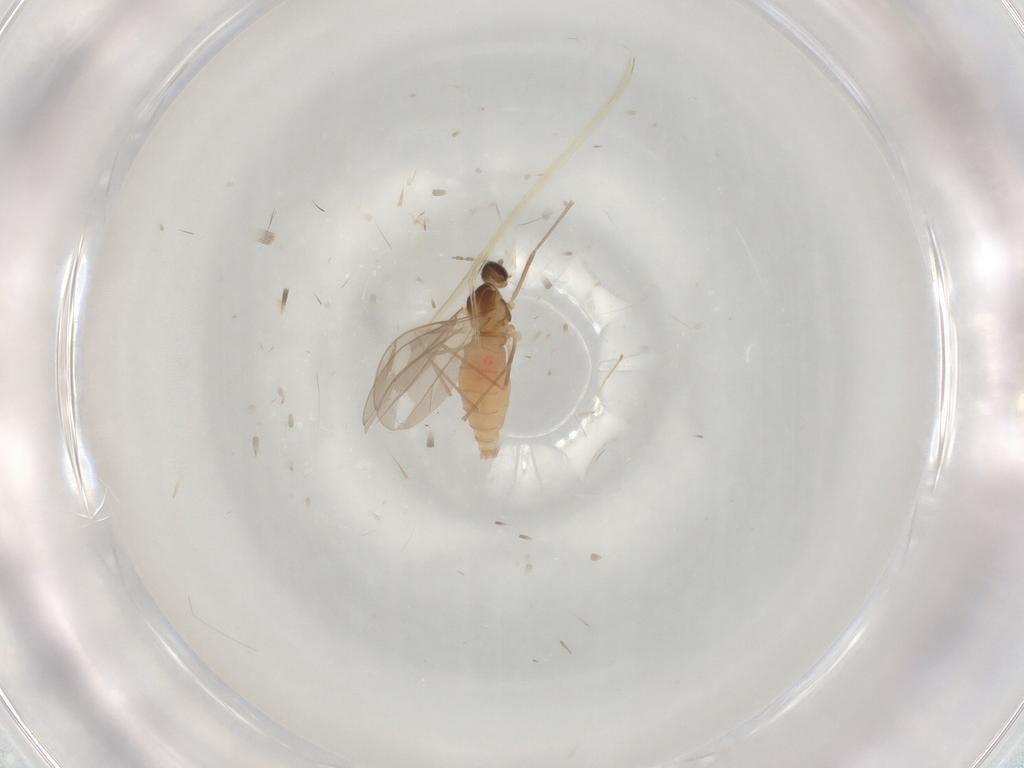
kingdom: Animalia
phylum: Arthropoda
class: Insecta
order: Diptera
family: Cecidomyiidae
